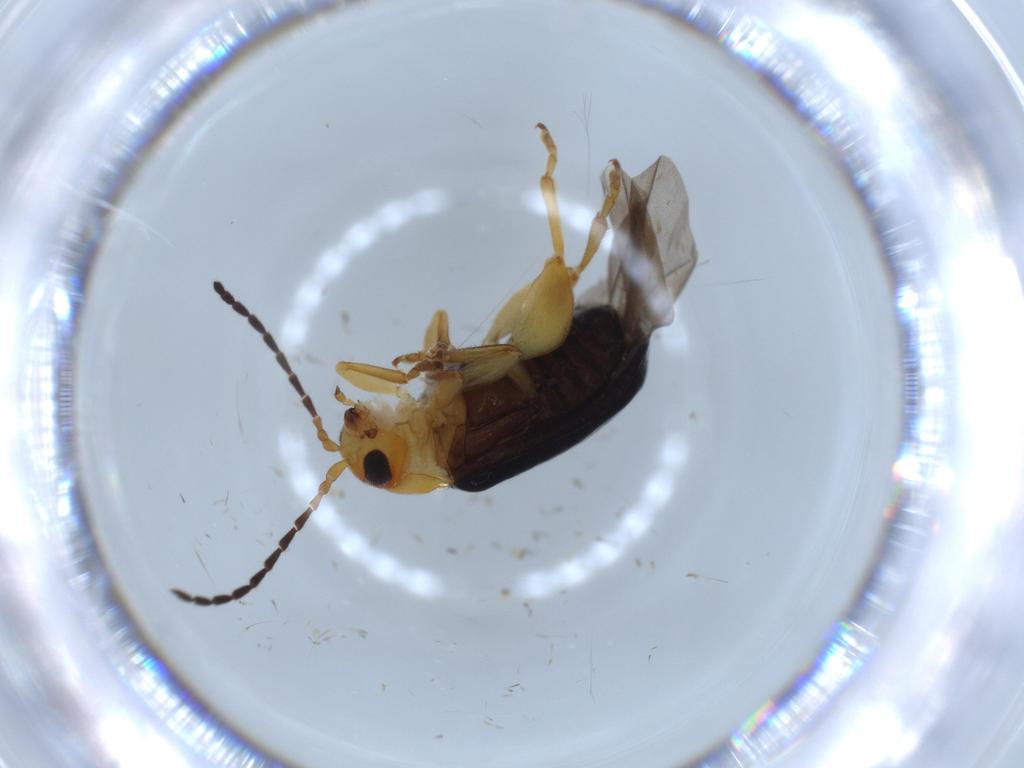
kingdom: Animalia
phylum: Arthropoda
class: Insecta
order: Coleoptera
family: Chrysomelidae
